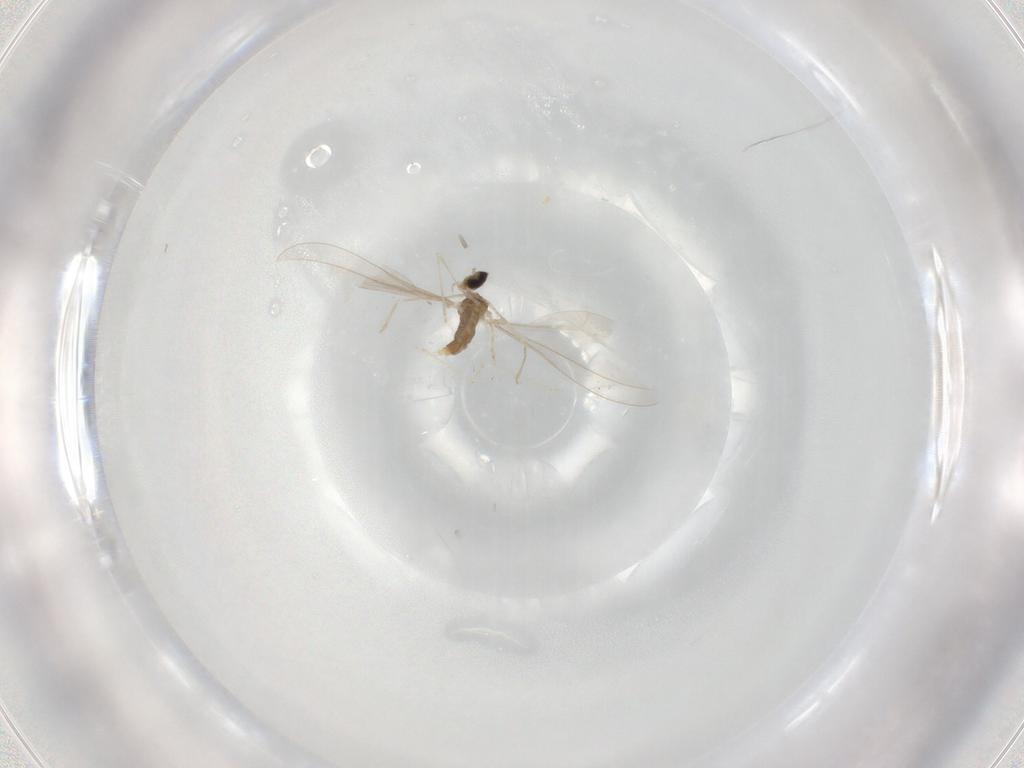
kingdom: Animalia
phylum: Arthropoda
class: Insecta
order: Diptera
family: Cecidomyiidae
